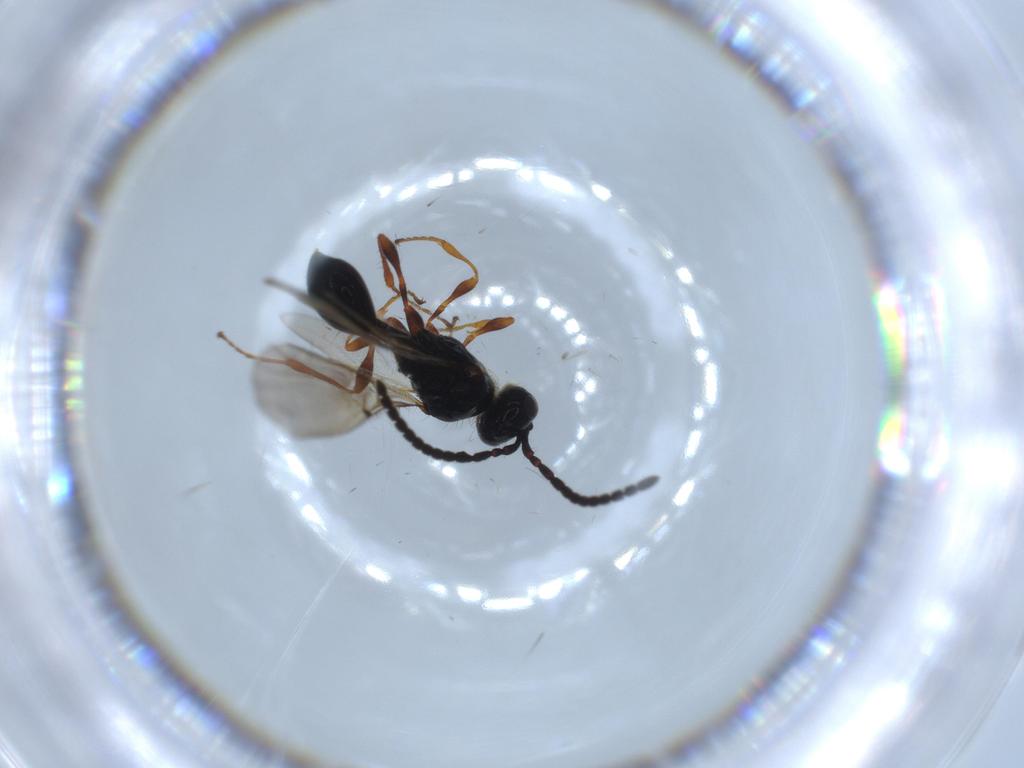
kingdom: Animalia
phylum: Arthropoda
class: Insecta
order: Hymenoptera
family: Diapriidae
